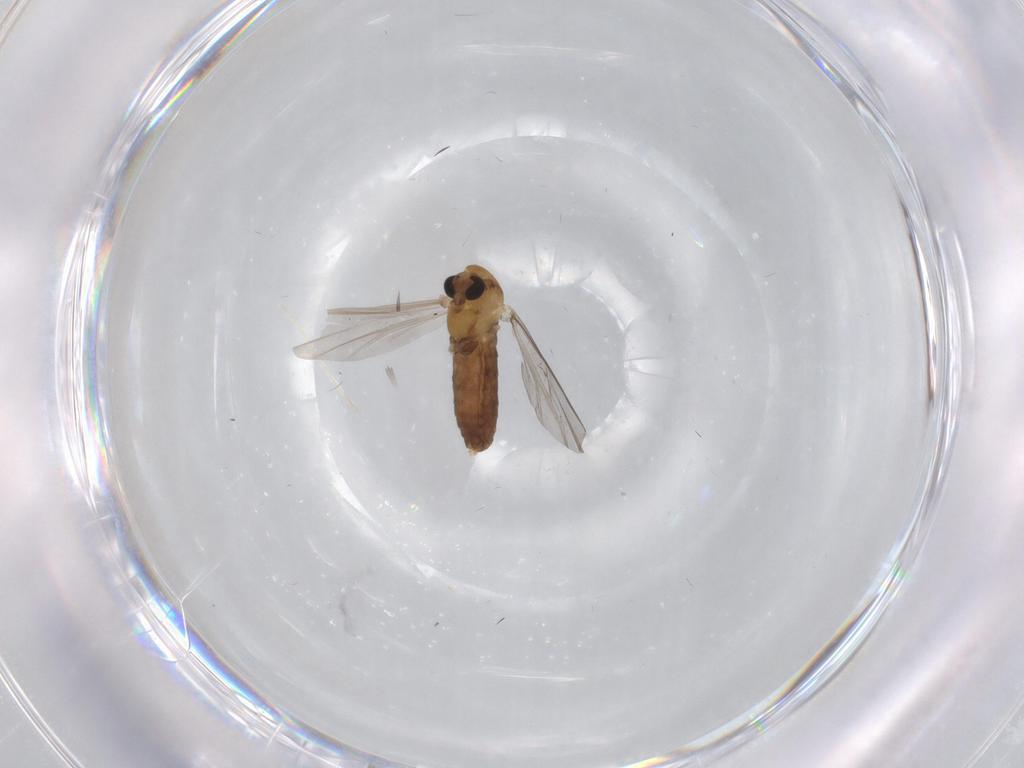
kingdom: Animalia
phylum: Arthropoda
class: Insecta
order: Diptera
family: Chironomidae
